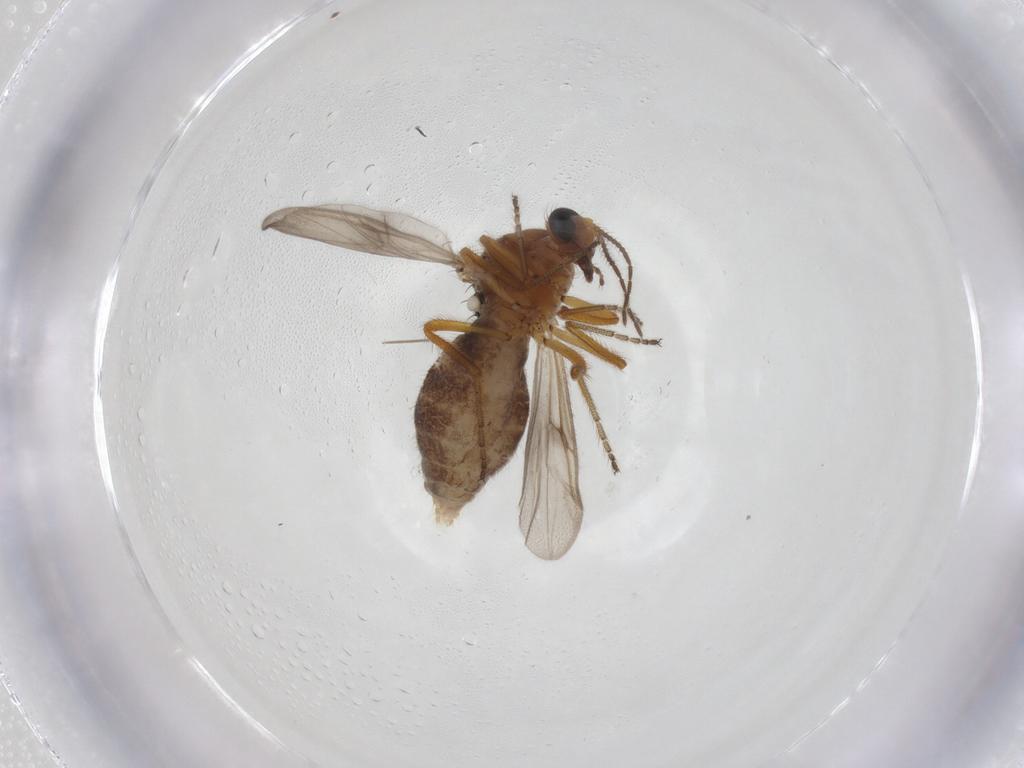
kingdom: Animalia
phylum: Arthropoda
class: Insecta
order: Diptera
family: Ceratopogonidae
